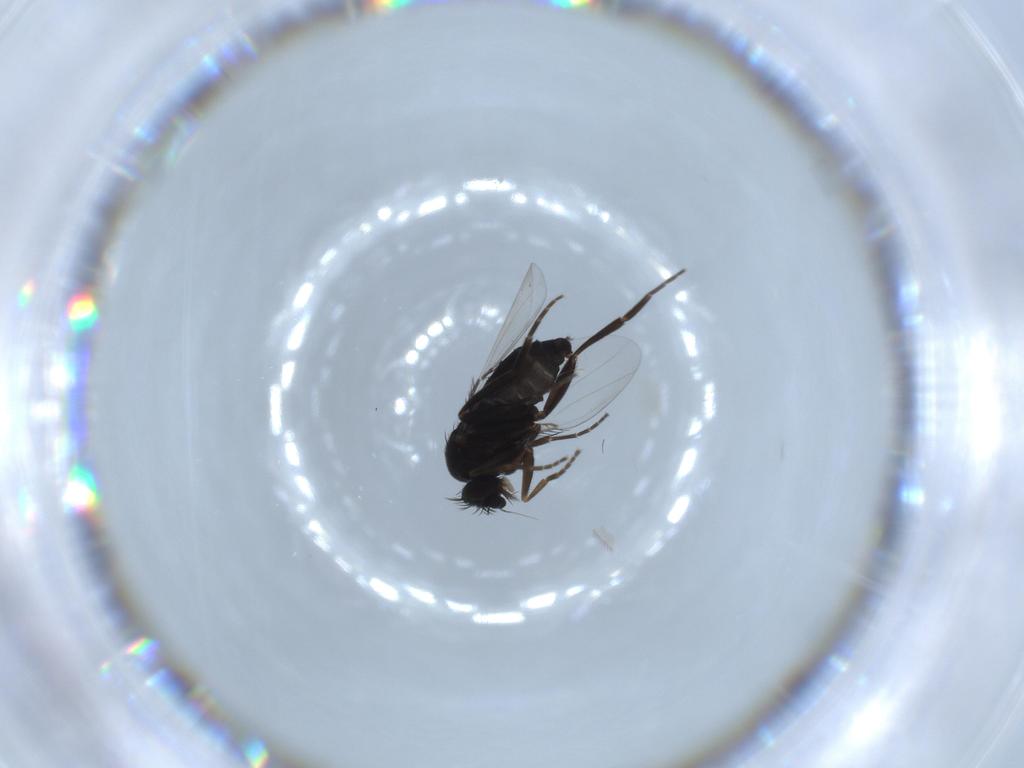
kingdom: Animalia
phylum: Arthropoda
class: Insecta
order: Diptera
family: Phoridae
